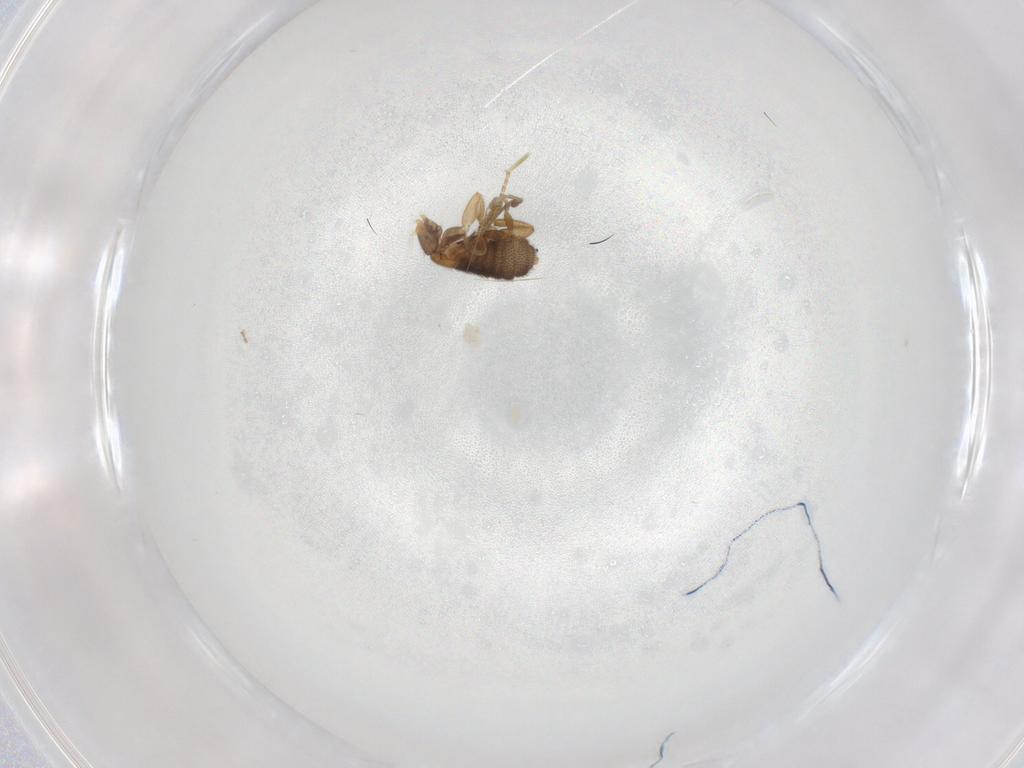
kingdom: Animalia
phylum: Arthropoda
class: Insecta
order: Diptera
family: Phoridae
